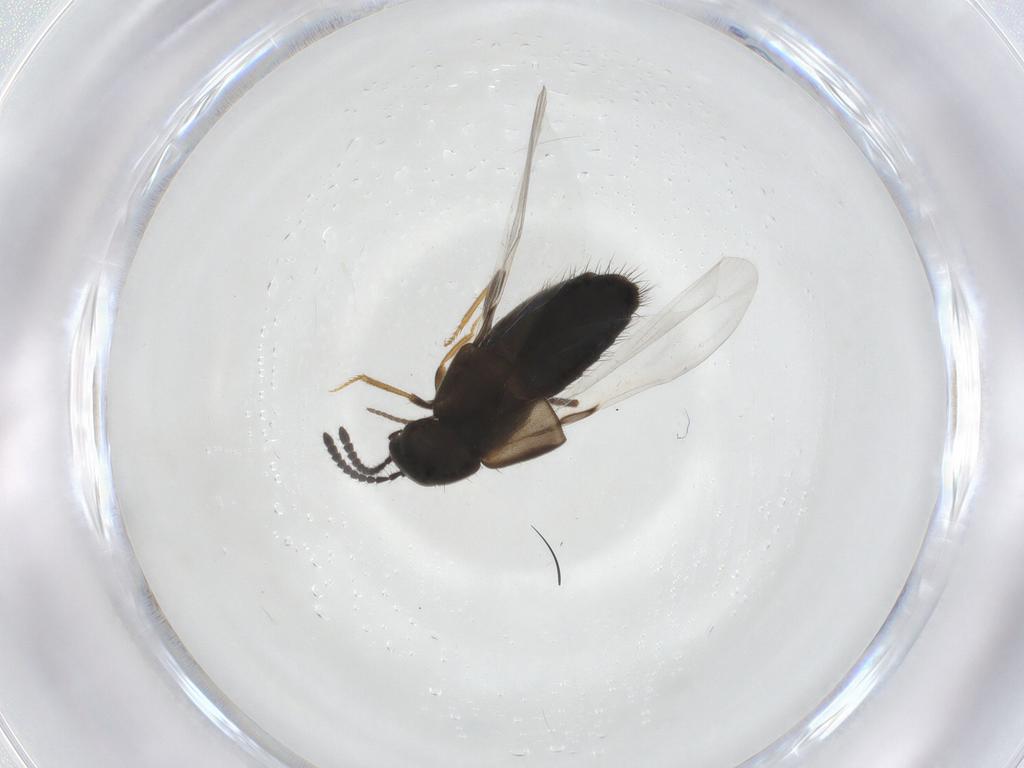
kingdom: Animalia
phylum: Arthropoda
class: Insecta
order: Coleoptera
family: Staphylinidae
